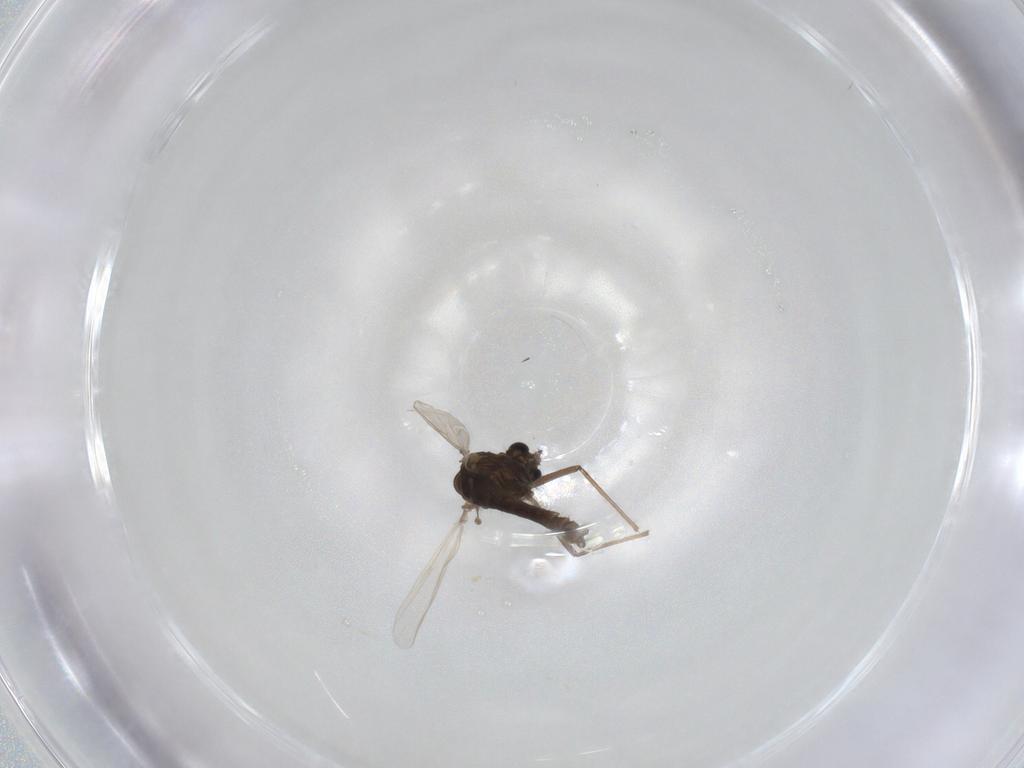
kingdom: Animalia
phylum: Arthropoda
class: Insecta
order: Diptera
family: Chironomidae
